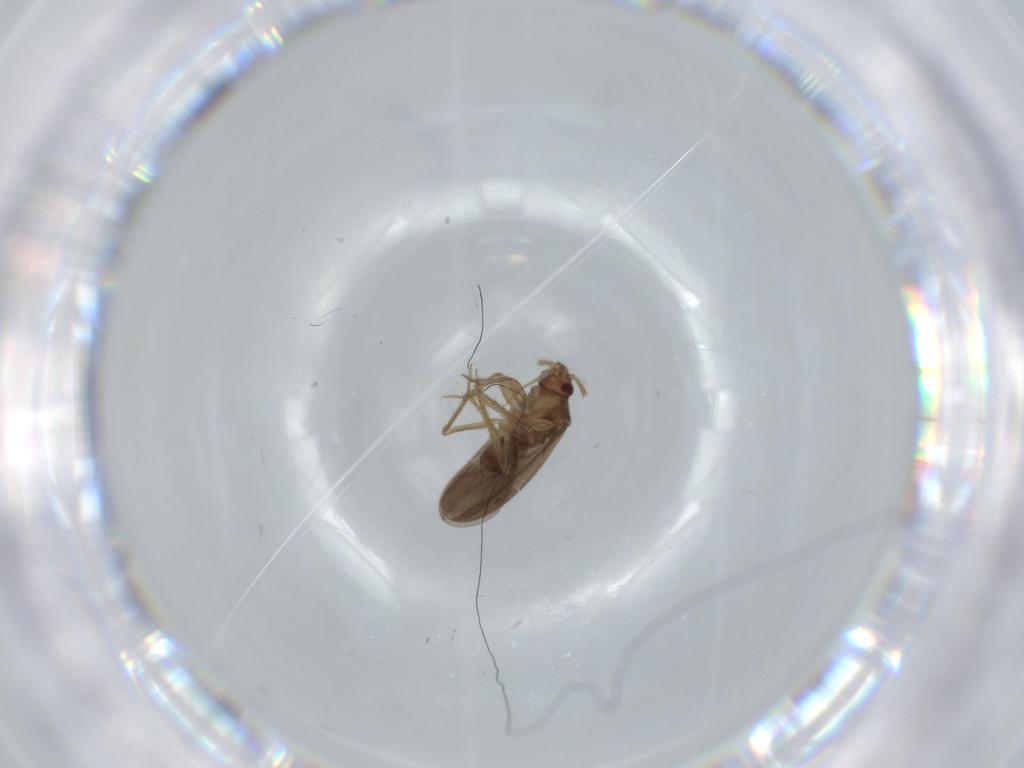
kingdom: Animalia
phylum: Arthropoda
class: Insecta
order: Hemiptera
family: Ceratocombidae
